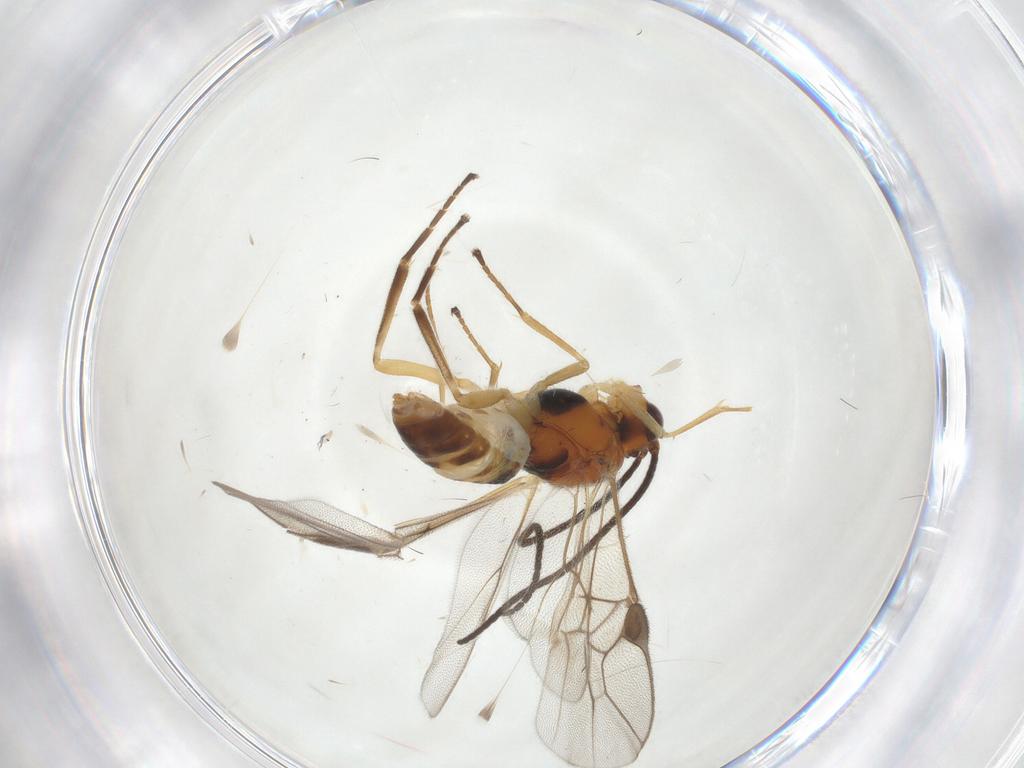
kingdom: Animalia
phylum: Arthropoda
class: Insecta
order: Hymenoptera
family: Braconidae
